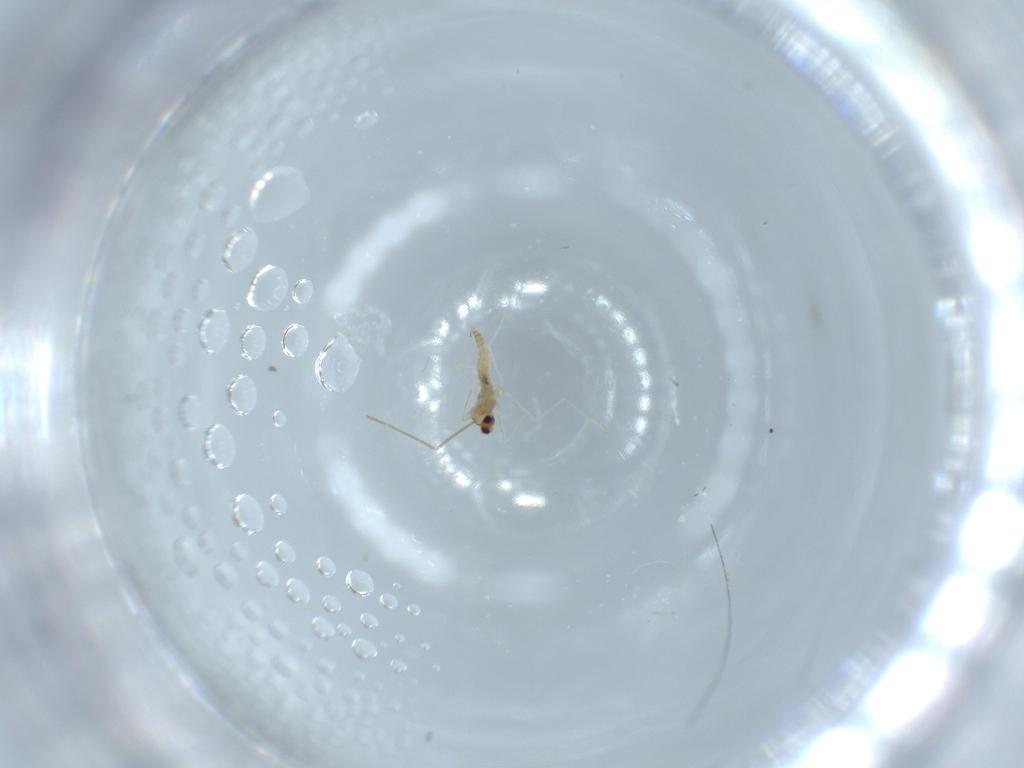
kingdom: Animalia
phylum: Arthropoda
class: Insecta
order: Diptera
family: Cecidomyiidae
